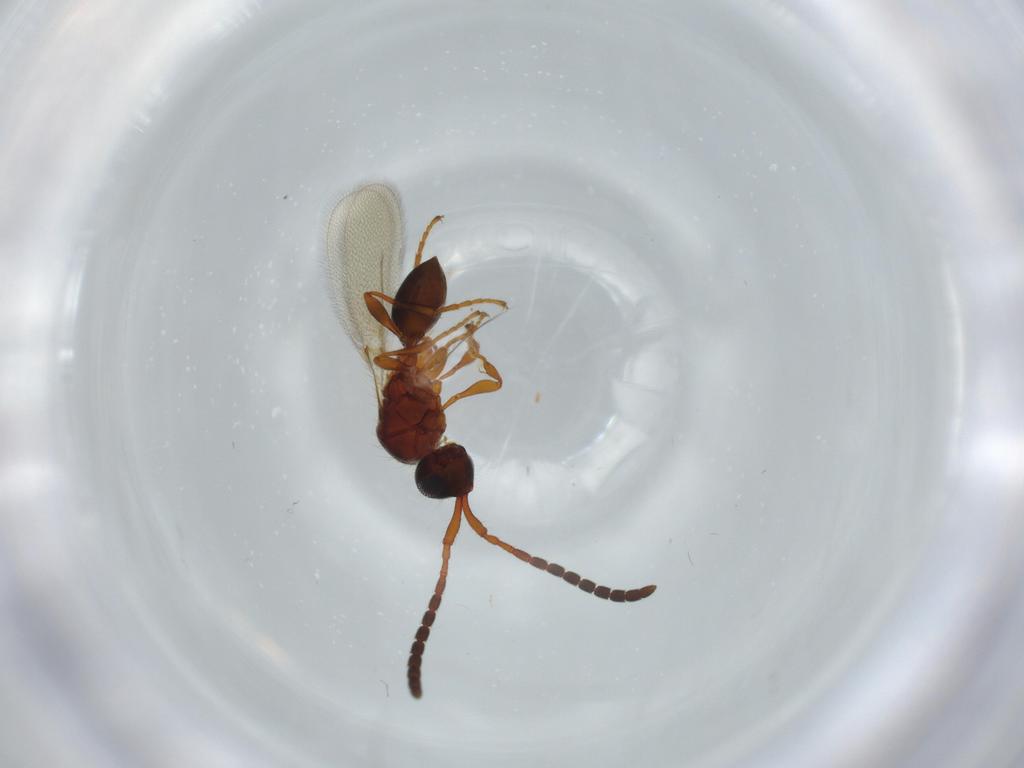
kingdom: Animalia
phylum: Arthropoda
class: Insecta
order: Hymenoptera
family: Diapriidae
